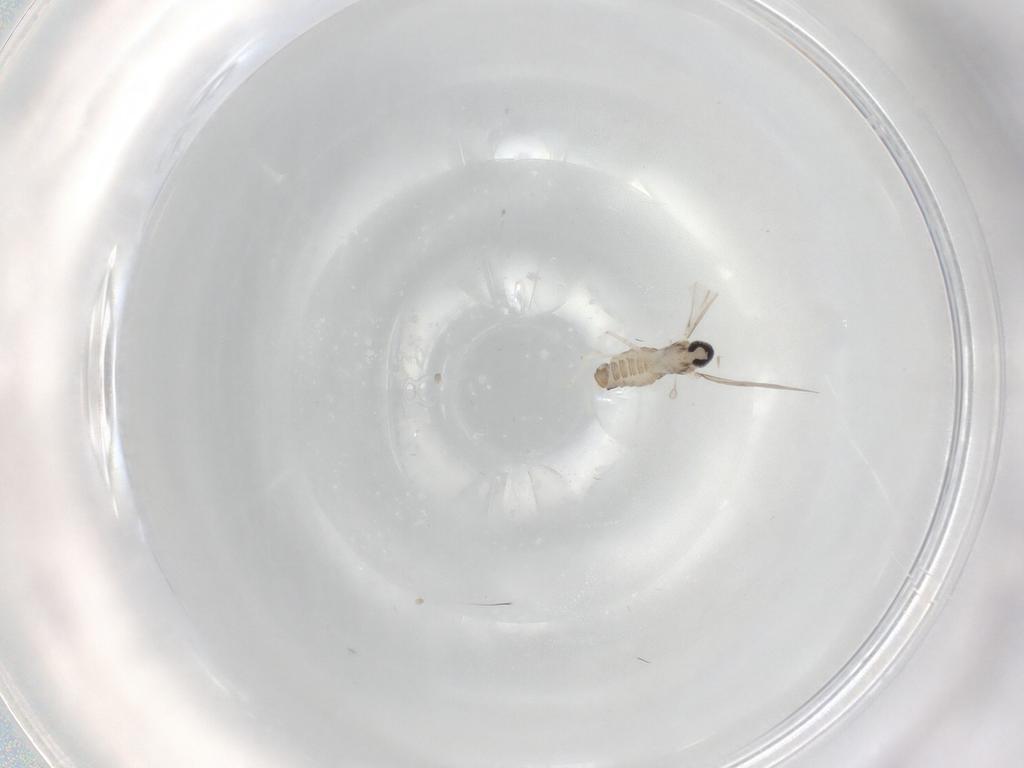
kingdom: Animalia
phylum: Arthropoda
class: Insecta
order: Diptera
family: Cecidomyiidae
